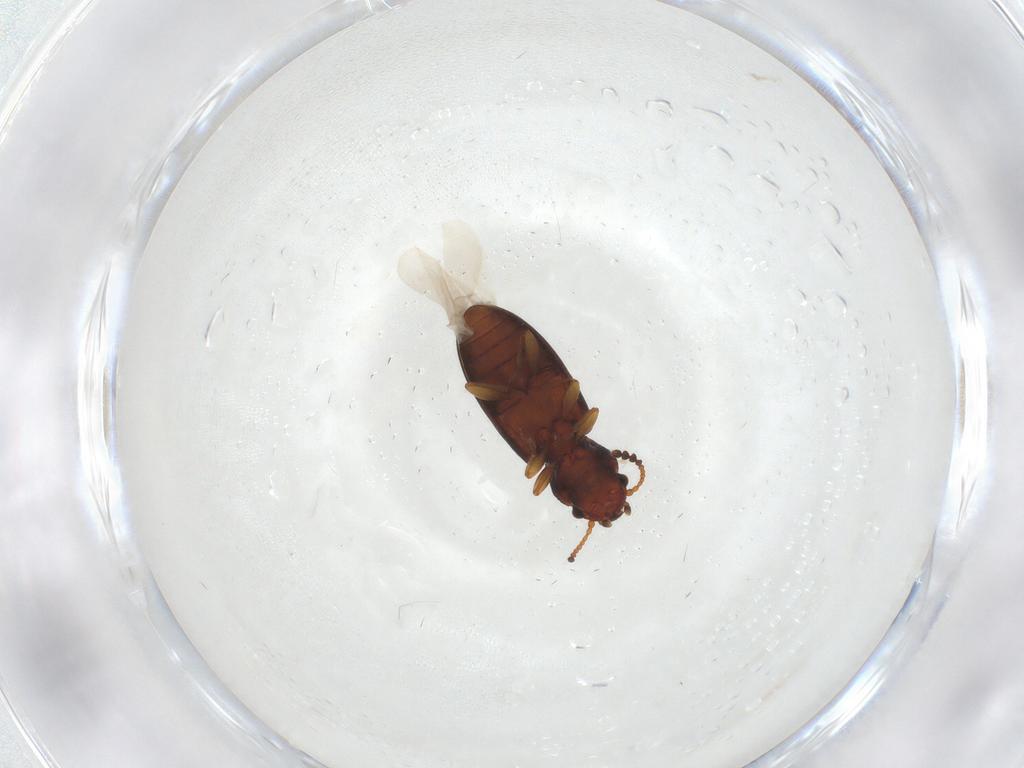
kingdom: Animalia
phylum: Arthropoda
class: Insecta
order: Coleoptera
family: Salpingidae
